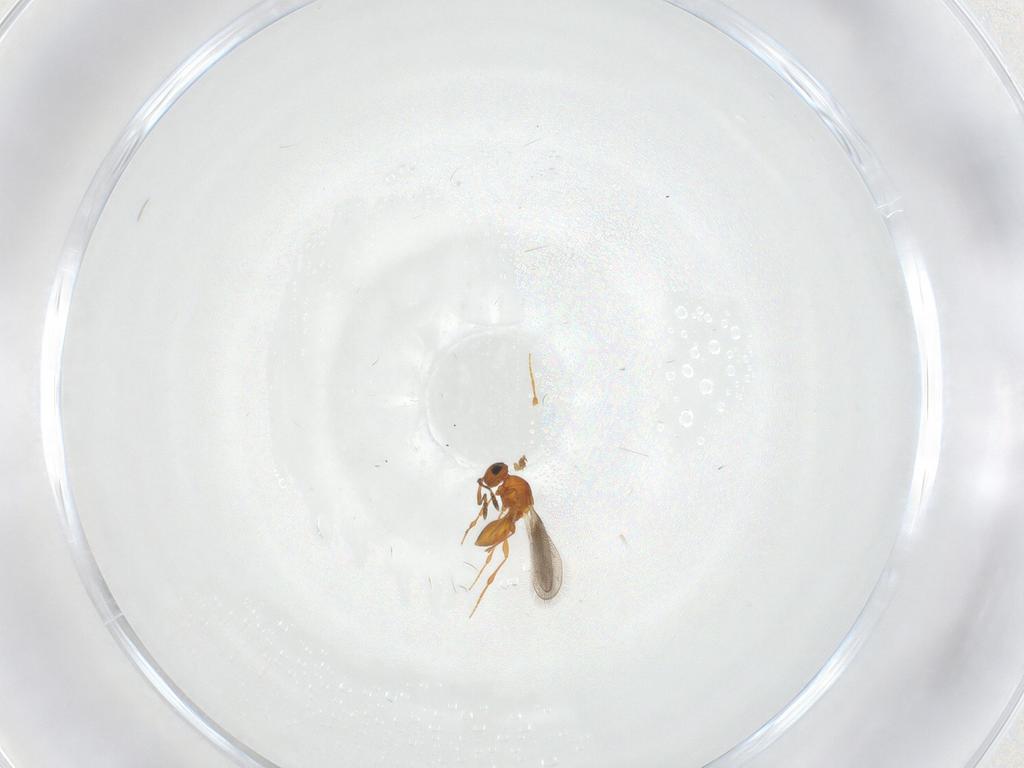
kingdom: Animalia
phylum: Arthropoda
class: Insecta
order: Hymenoptera
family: Platygastridae
